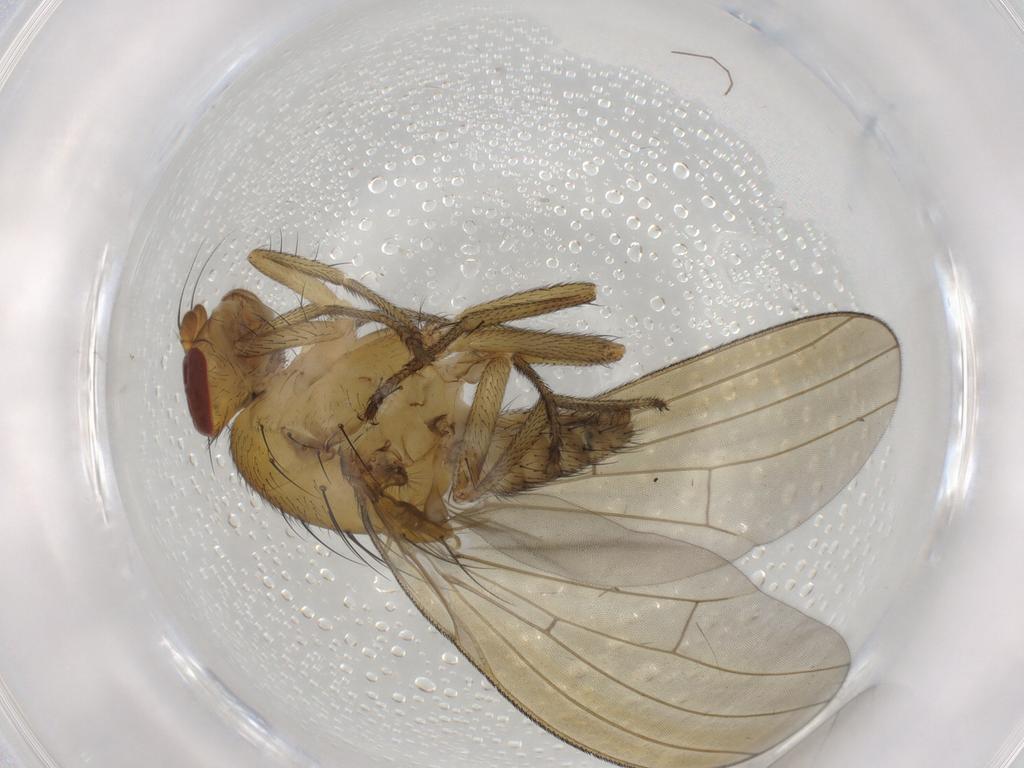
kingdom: Animalia
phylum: Arthropoda
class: Insecta
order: Diptera
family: Chironomidae
